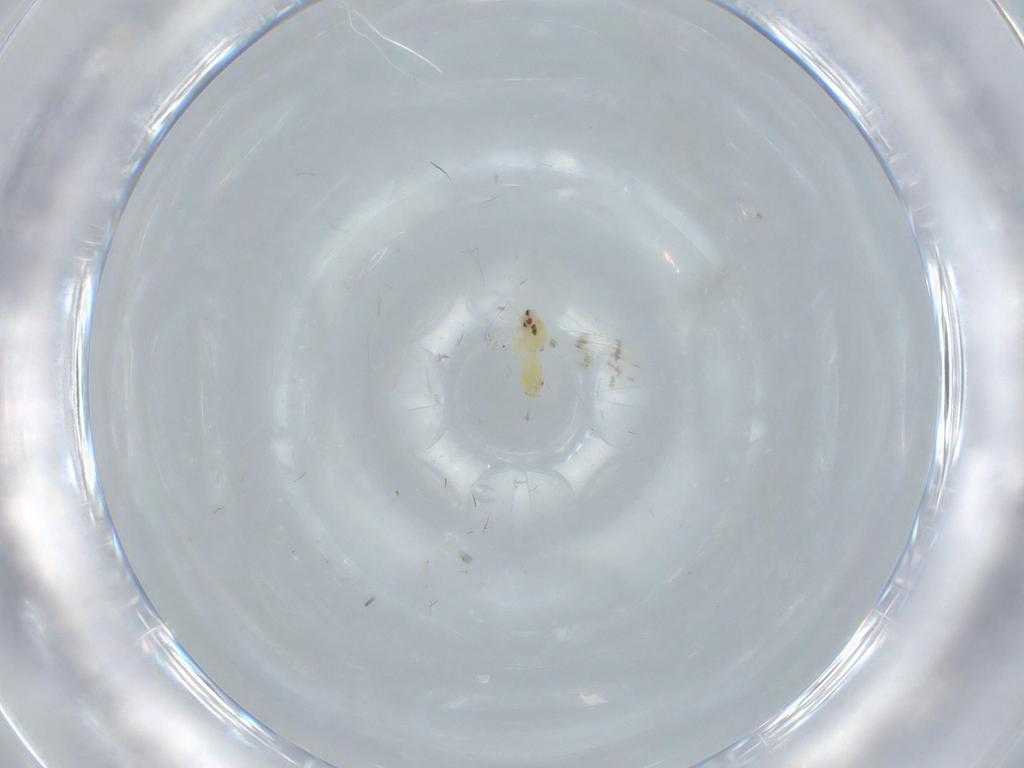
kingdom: Animalia
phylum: Arthropoda
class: Insecta
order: Hemiptera
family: Aleyrodidae
